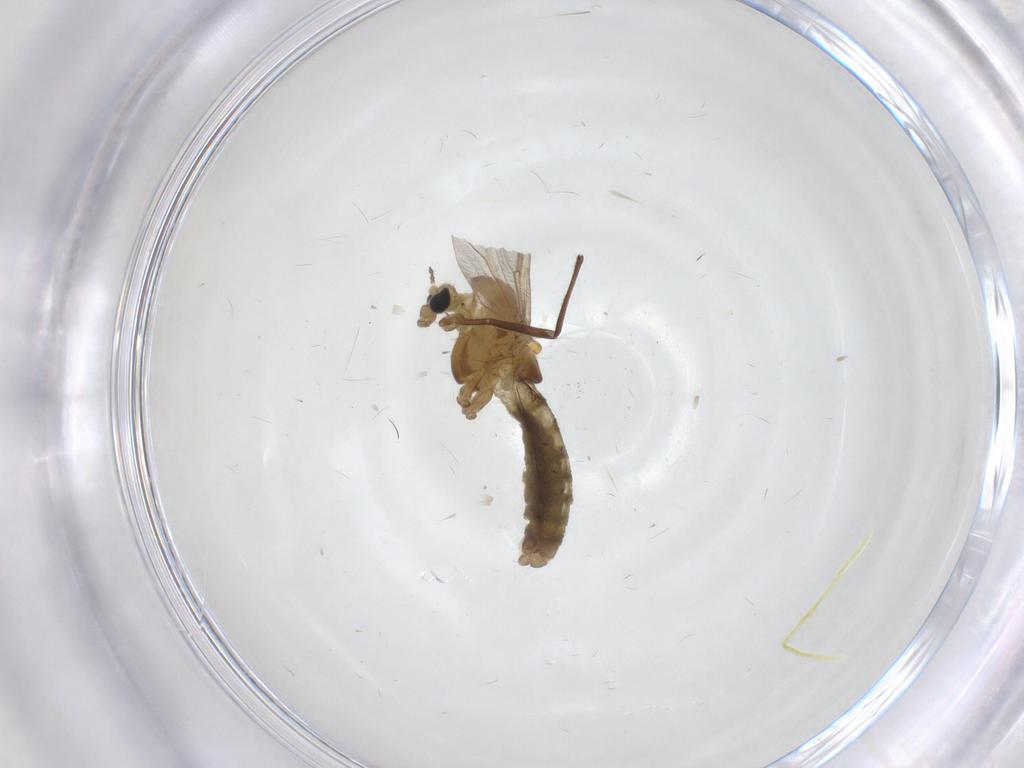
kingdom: Animalia
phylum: Arthropoda
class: Insecta
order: Diptera
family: Chironomidae
